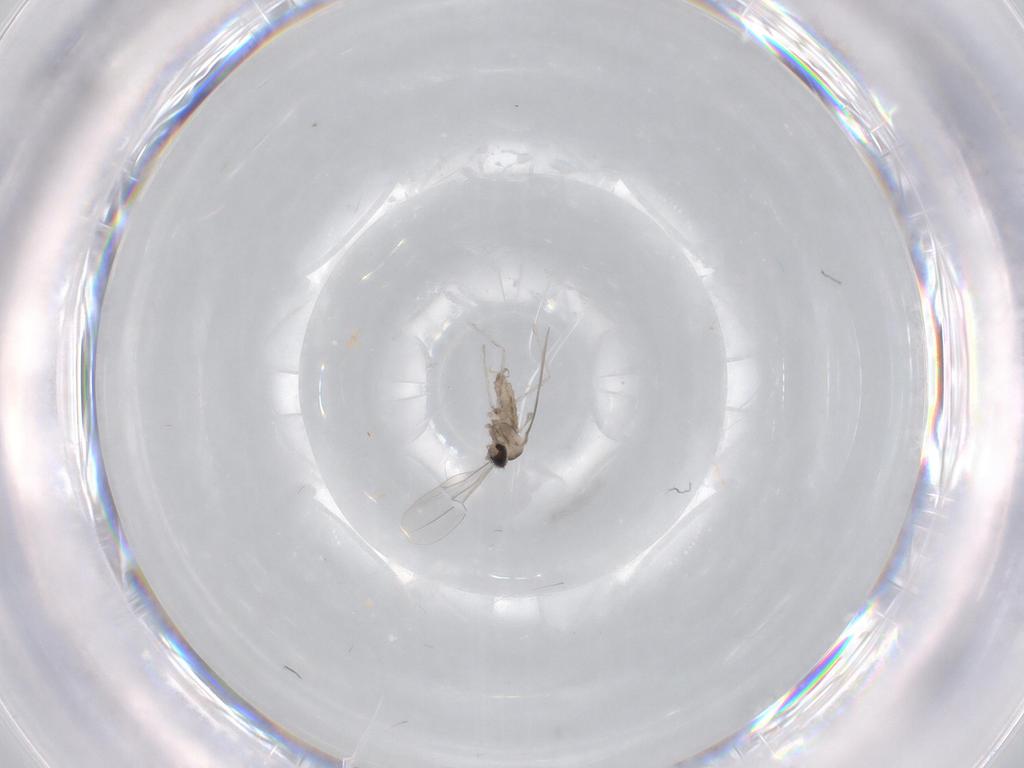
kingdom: Animalia
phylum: Arthropoda
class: Insecta
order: Diptera
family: Cecidomyiidae
